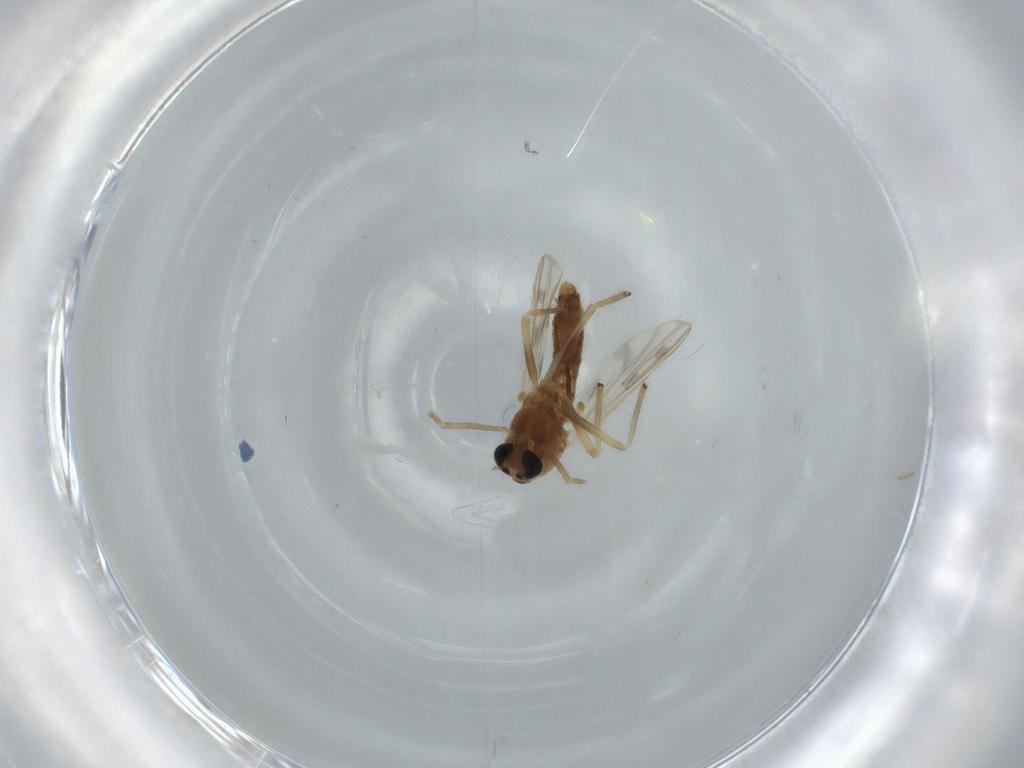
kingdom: Animalia
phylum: Arthropoda
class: Insecta
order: Diptera
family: Chironomidae
